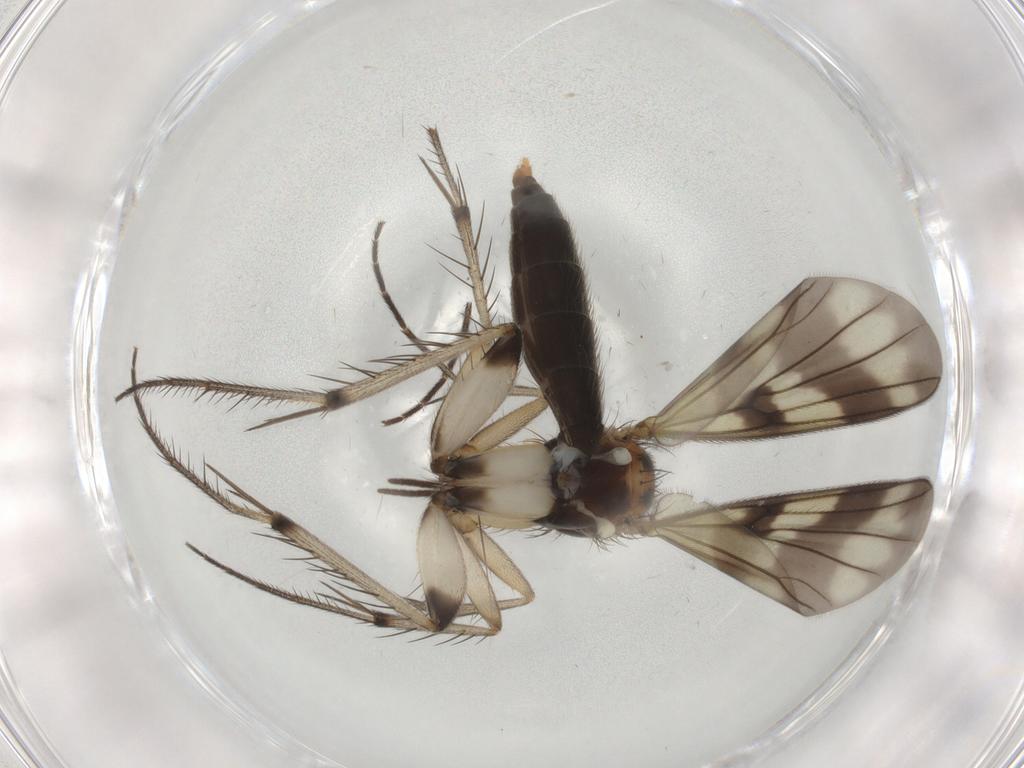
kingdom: Animalia
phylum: Arthropoda
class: Insecta
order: Diptera
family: Mycetophilidae
